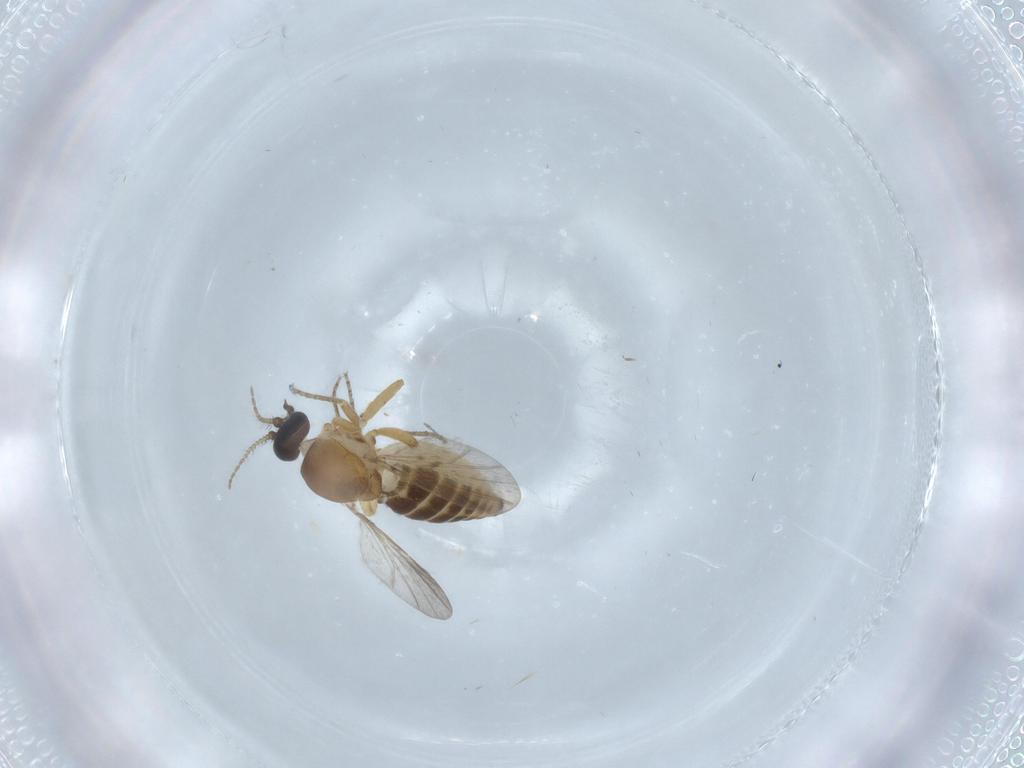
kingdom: Animalia
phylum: Arthropoda
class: Insecta
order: Diptera
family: Ceratopogonidae
